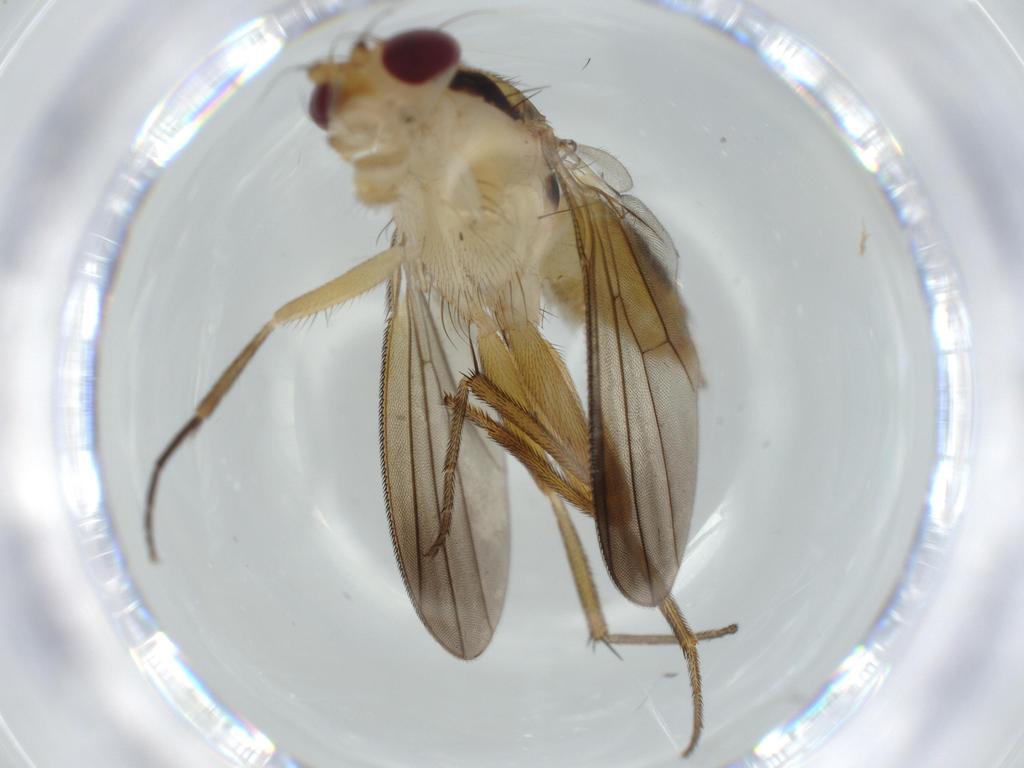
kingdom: Animalia
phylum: Arthropoda
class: Insecta
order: Diptera
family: Clusiidae
